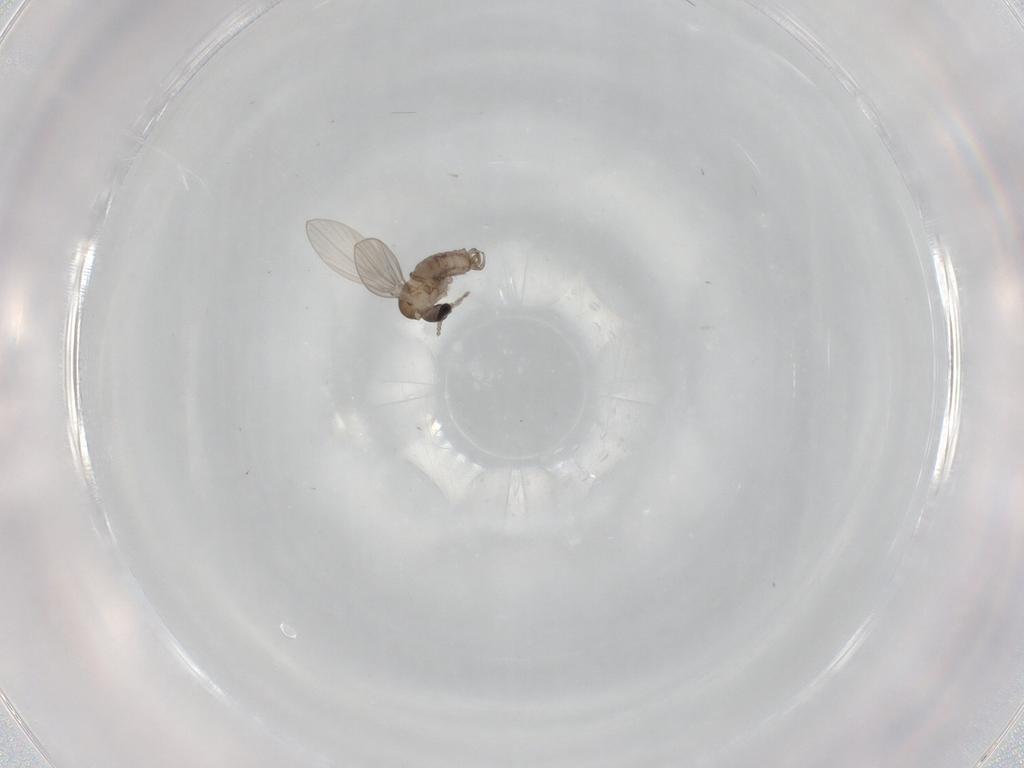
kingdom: Animalia
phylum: Arthropoda
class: Insecta
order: Diptera
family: Psychodidae
